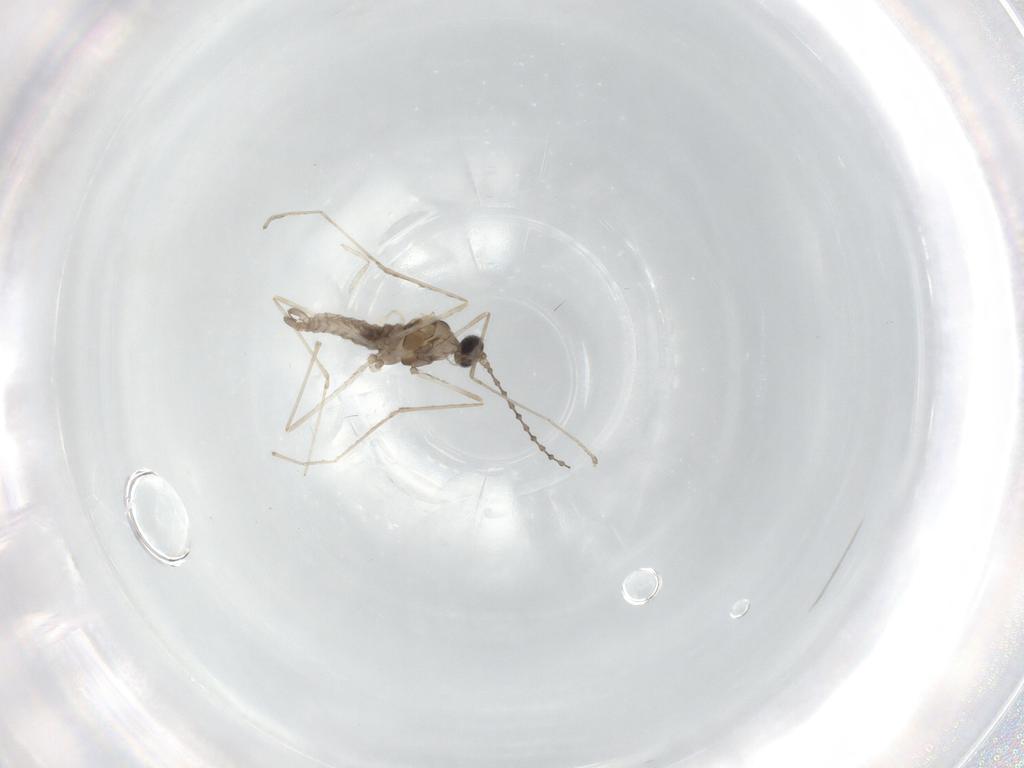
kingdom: Animalia
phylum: Arthropoda
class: Insecta
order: Diptera
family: Cecidomyiidae
